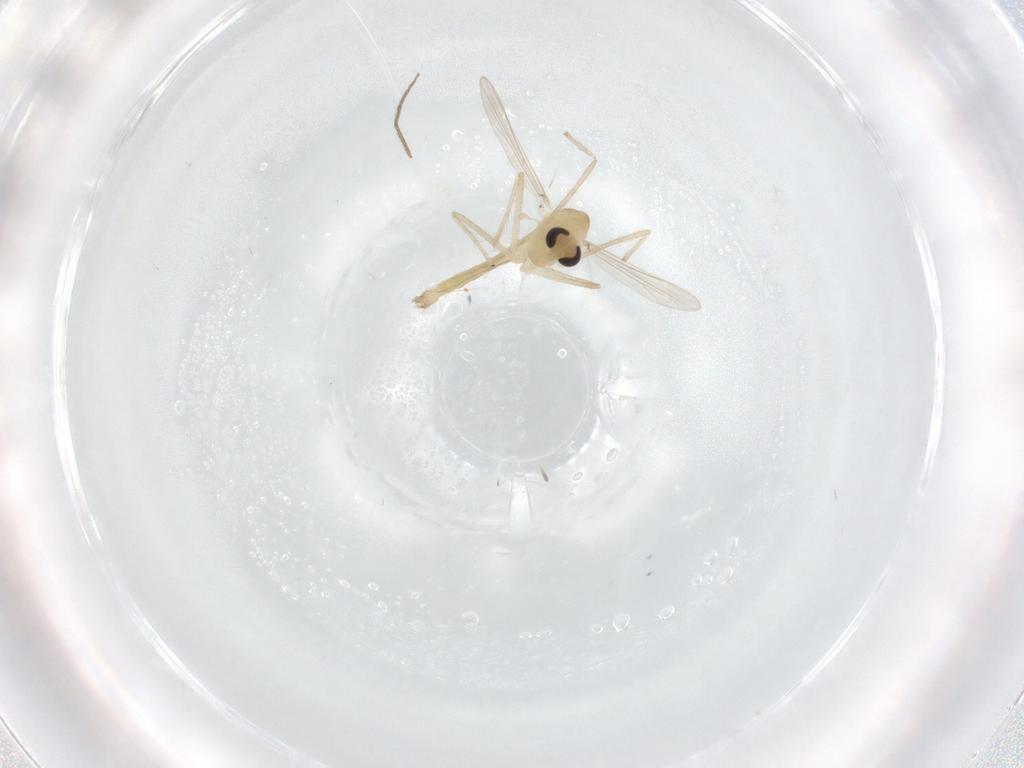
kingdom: Animalia
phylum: Arthropoda
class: Insecta
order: Diptera
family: Chironomidae
